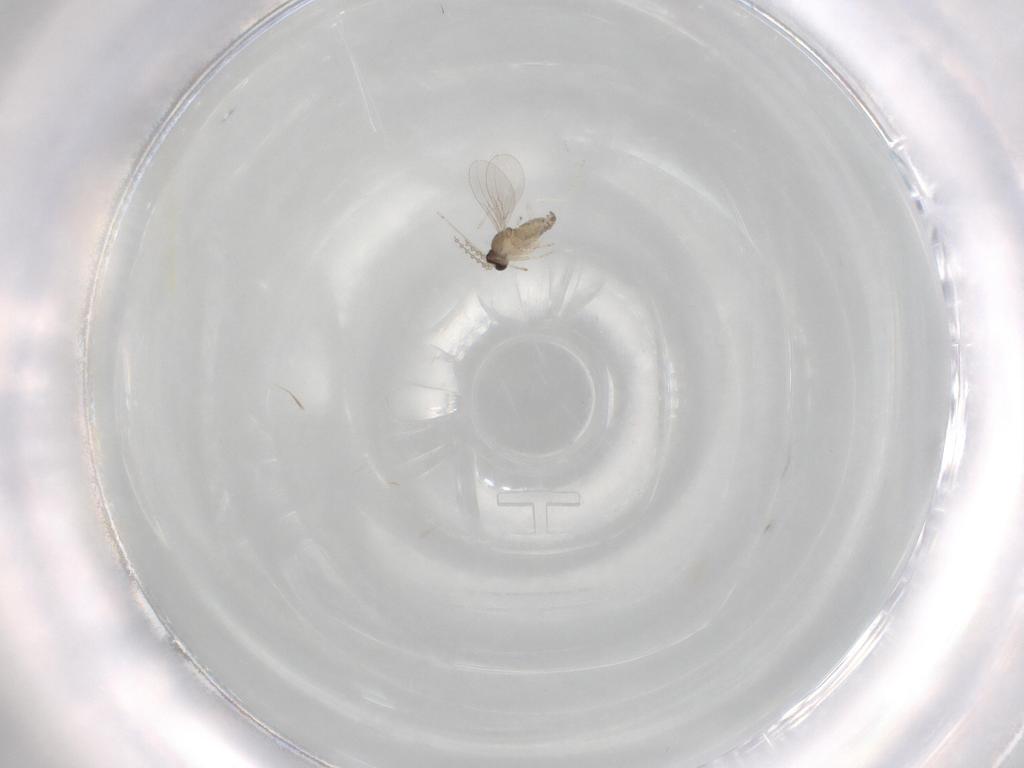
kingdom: Animalia
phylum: Arthropoda
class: Insecta
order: Diptera
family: Cecidomyiidae
